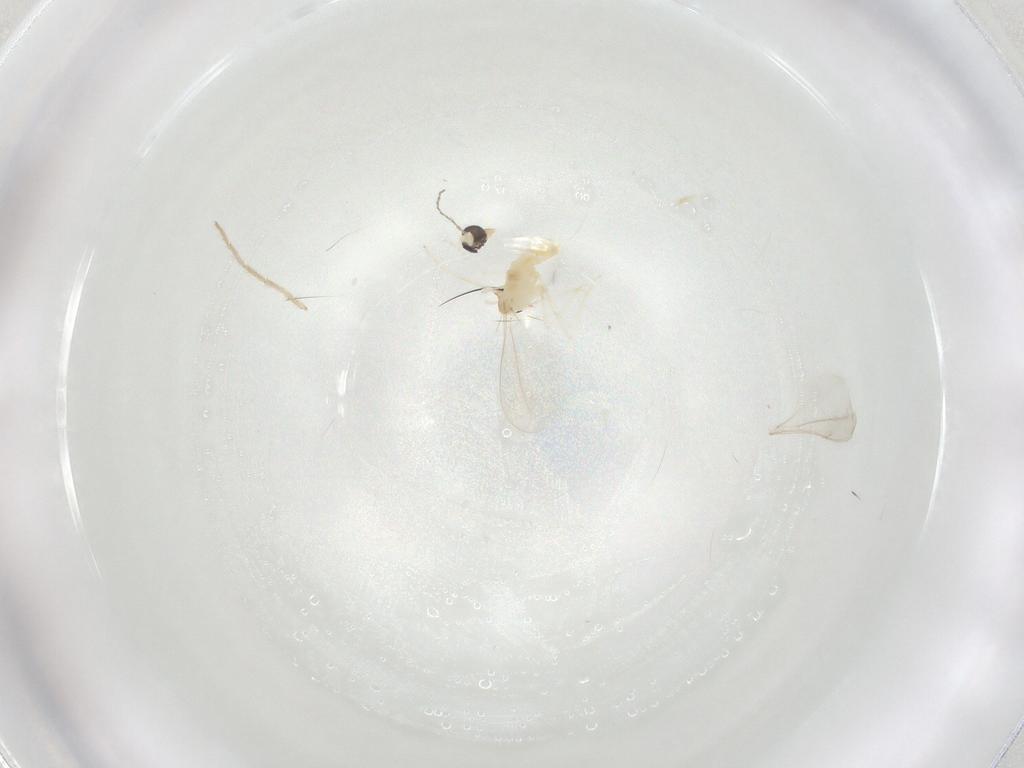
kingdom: Animalia
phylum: Arthropoda
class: Insecta
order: Diptera
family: Cecidomyiidae
